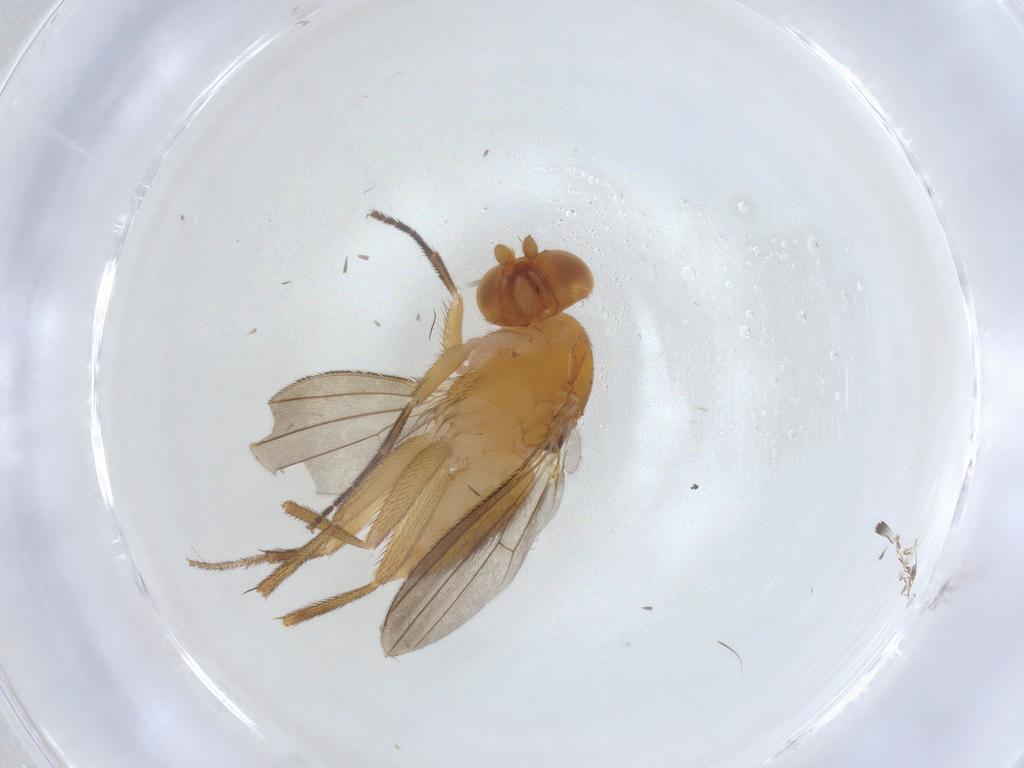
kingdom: Animalia
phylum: Arthropoda
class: Insecta
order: Diptera
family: Clusiidae
